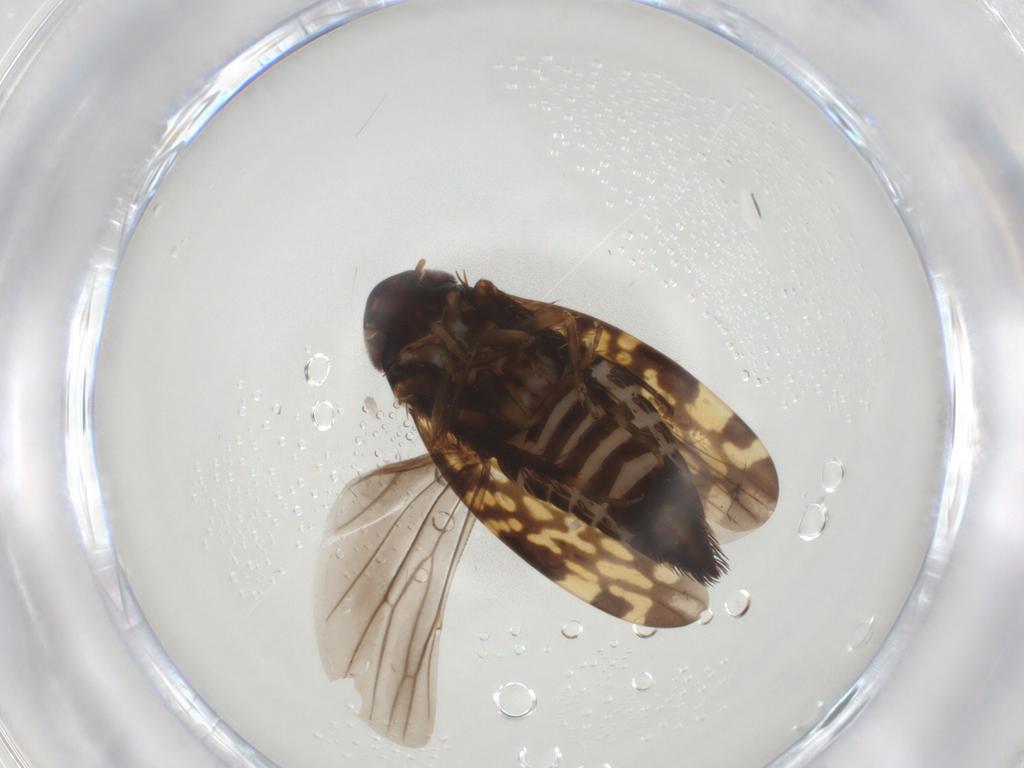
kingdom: Animalia
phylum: Arthropoda
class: Insecta
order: Hemiptera
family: Cicadellidae
